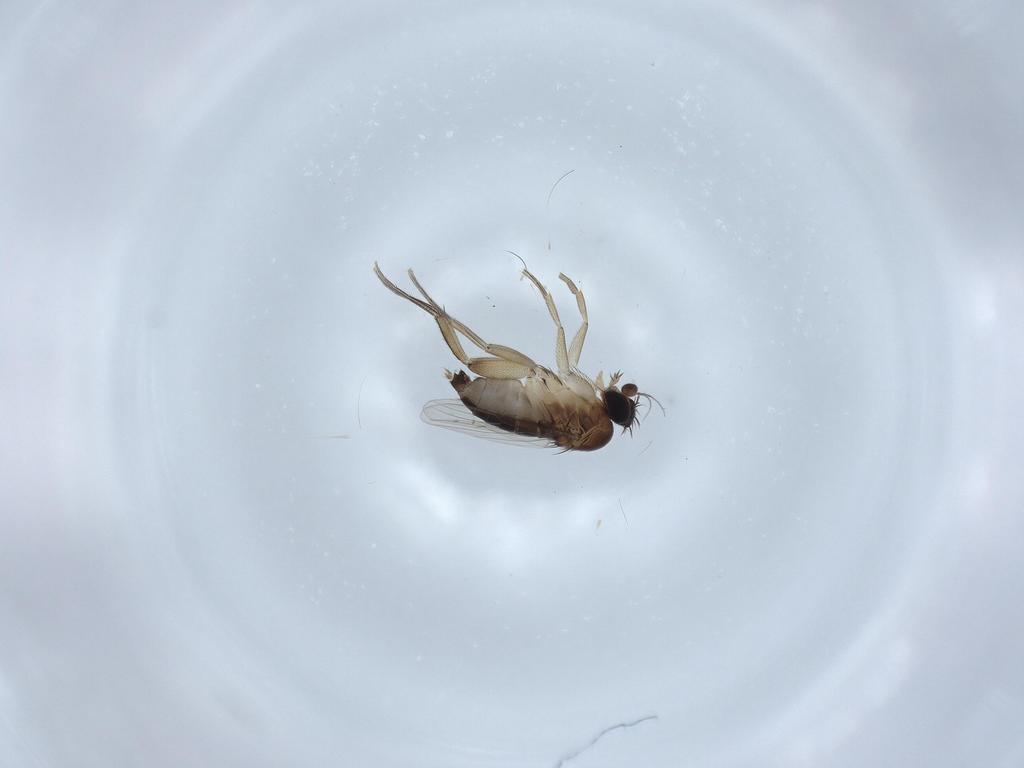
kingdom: Animalia
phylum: Arthropoda
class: Insecta
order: Diptera
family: Phoridae
